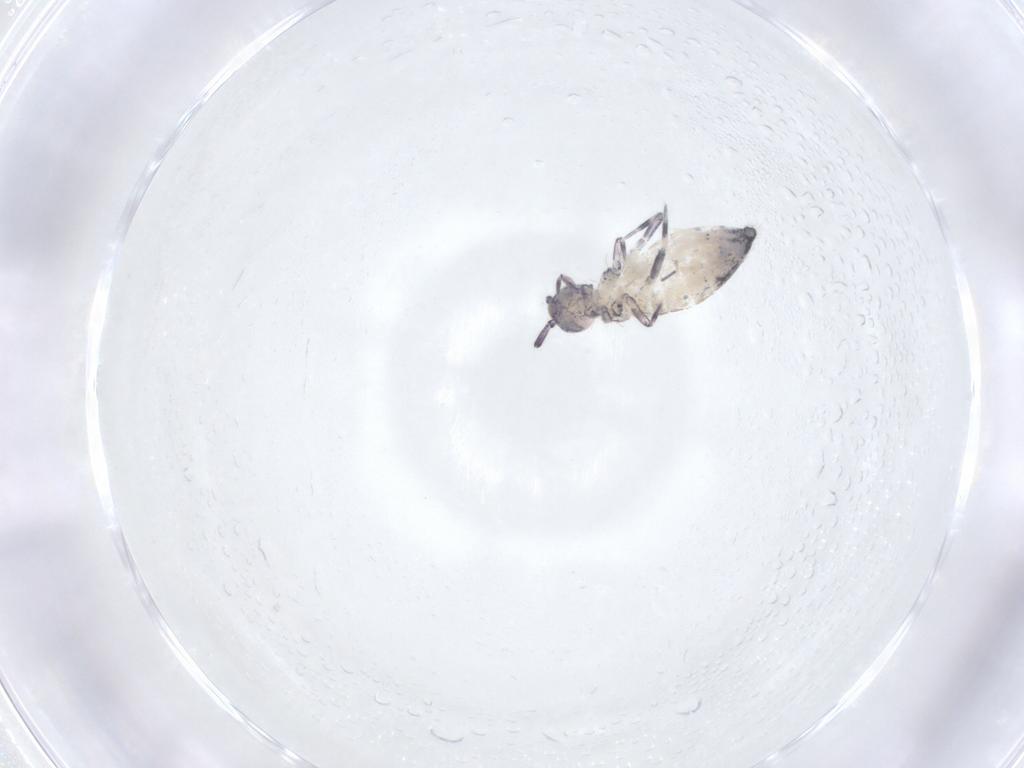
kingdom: Animalia
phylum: Arthropoda
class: Collembola
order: Entomobryomorpha
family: Entomobryidae
